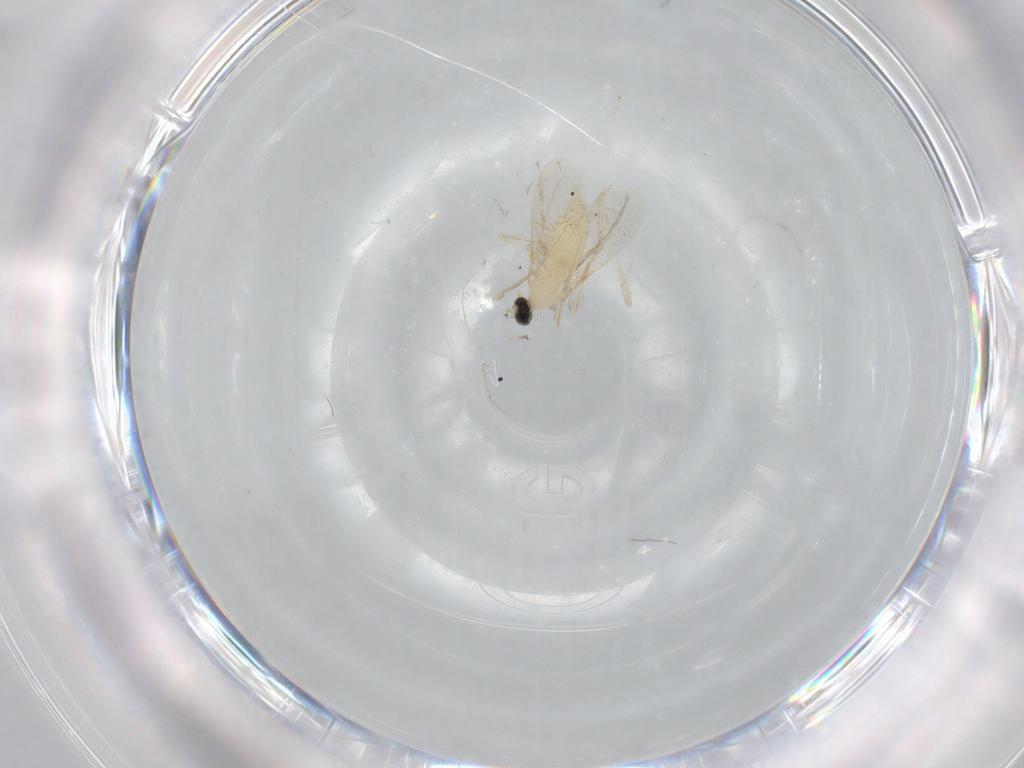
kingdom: Animalia
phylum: Arthropoda
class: Insecta
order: Diptera
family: Cecidomyiidae
